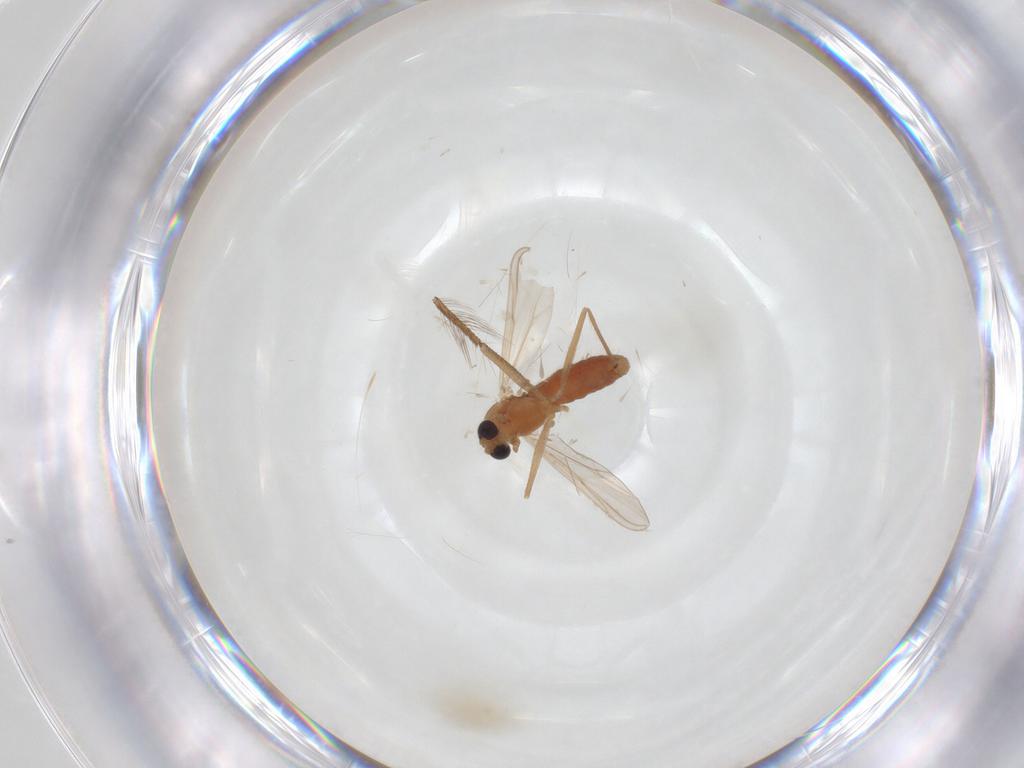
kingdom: Animalia
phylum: Arthropoda
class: Insecta
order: Diptera
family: Chironomidae
